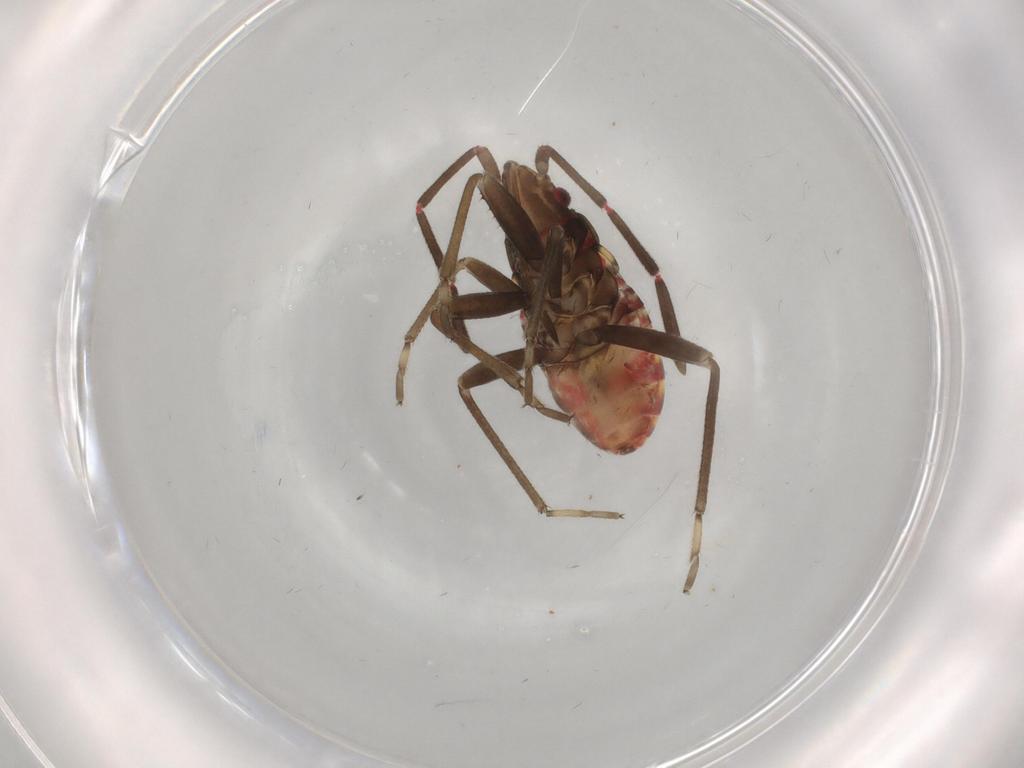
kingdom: Animalia
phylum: Arthropoda
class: Insecta
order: Hemiptera
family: Rhyparochromidae
